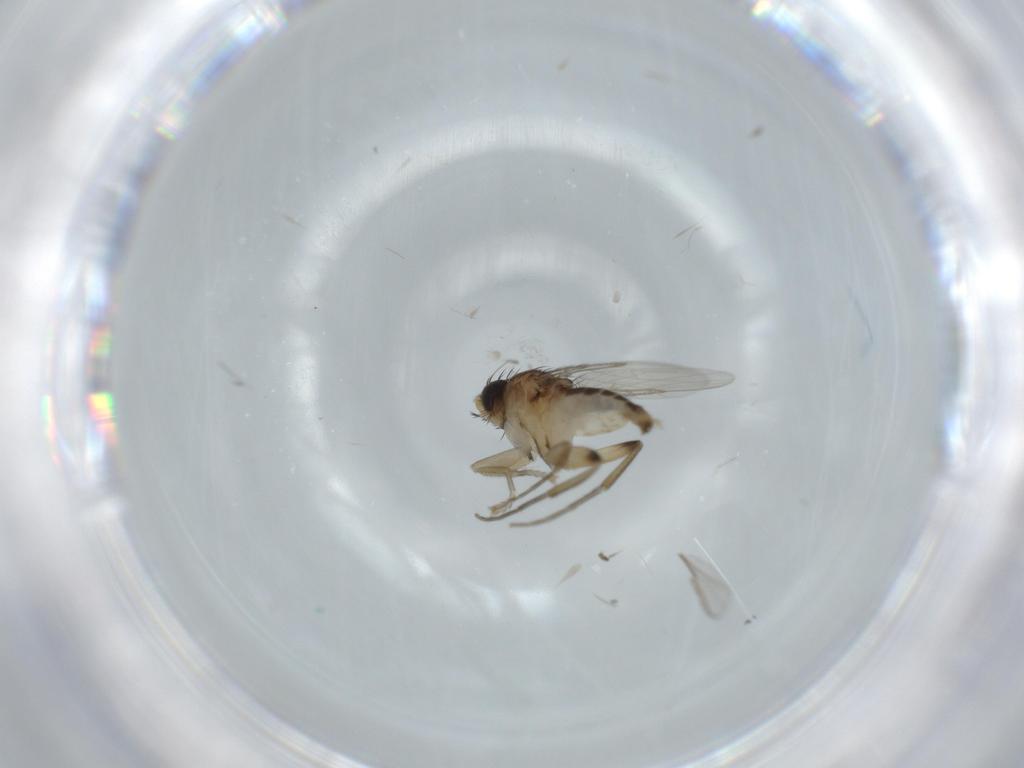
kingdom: Animalia
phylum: Arthropoda
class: Insecta
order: Diptera
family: Phoridae
